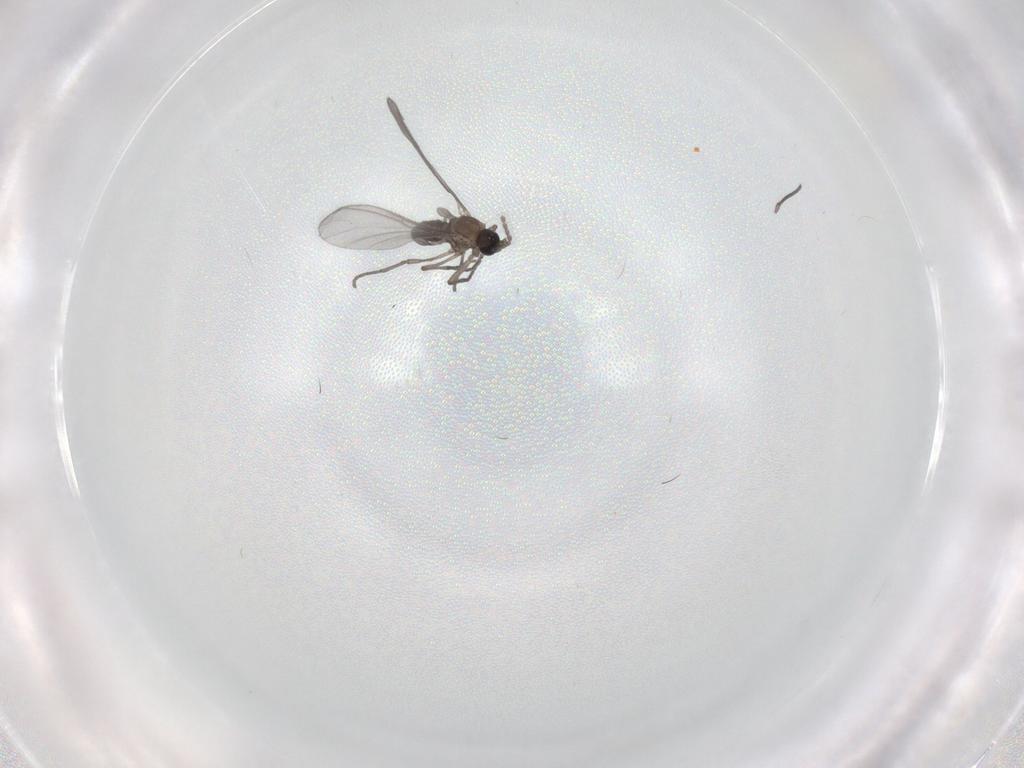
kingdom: Animalia
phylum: Arthropoda
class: Insecta
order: Diptera
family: Sciaridae
